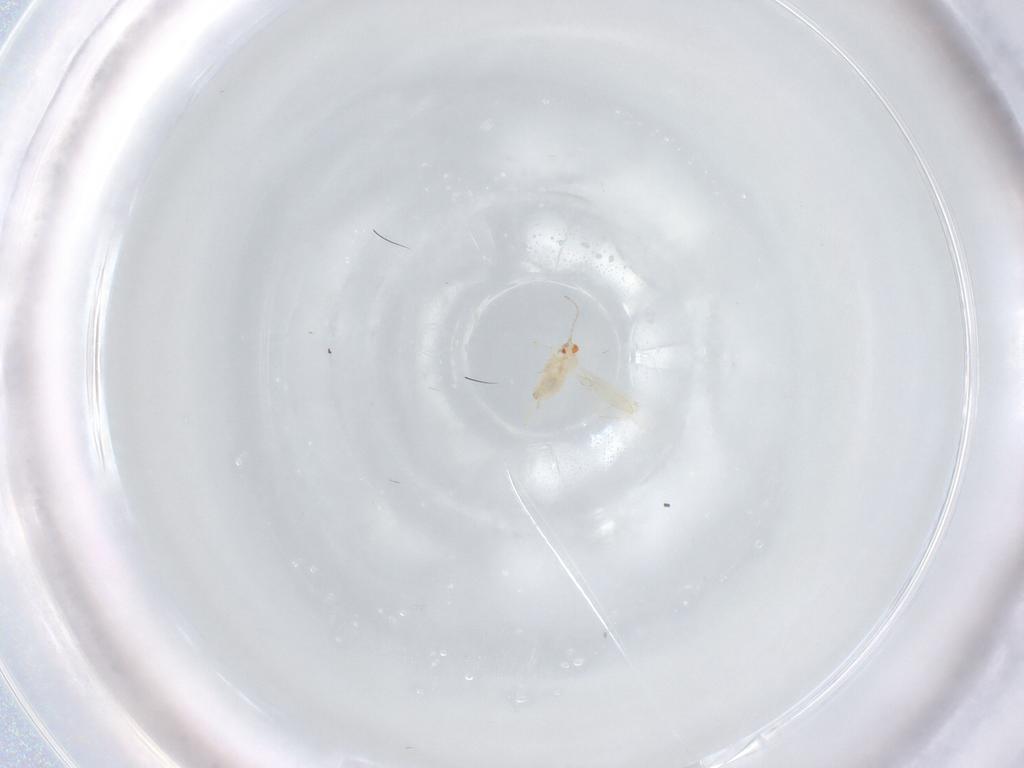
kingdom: Animalia
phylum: Arthropoda
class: Insecta
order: Diptera
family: Cecidomyiidae
